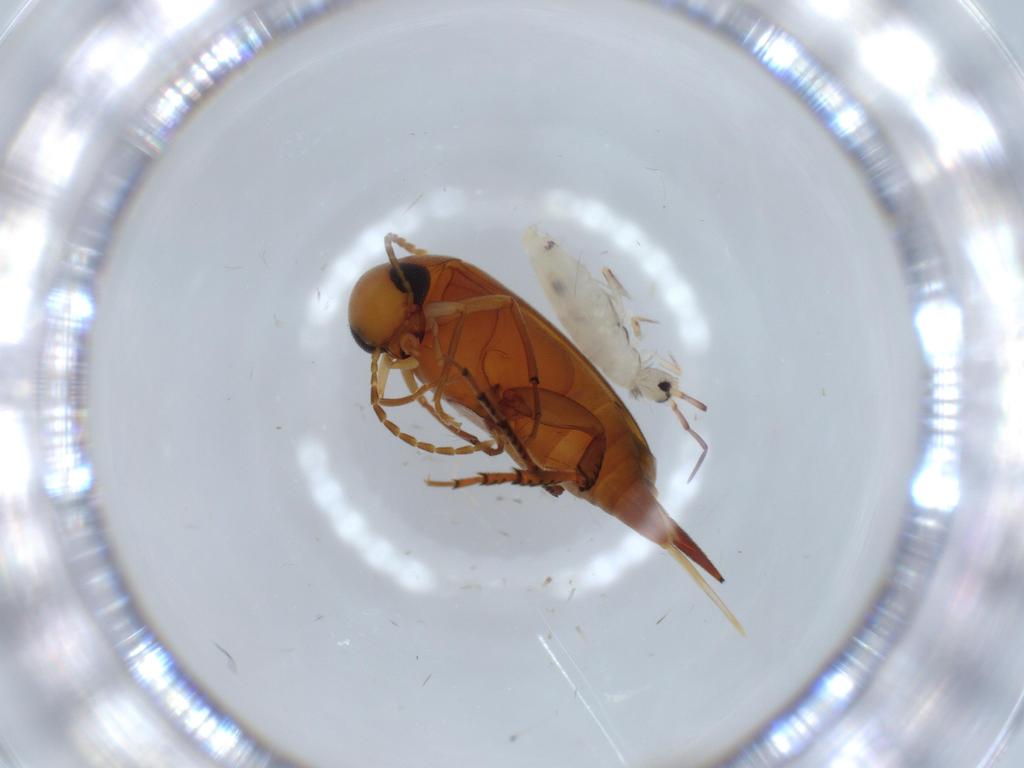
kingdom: Animalia
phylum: Arthropoda
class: Collembola
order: Entomobryomorpha
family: Entomobryidae
